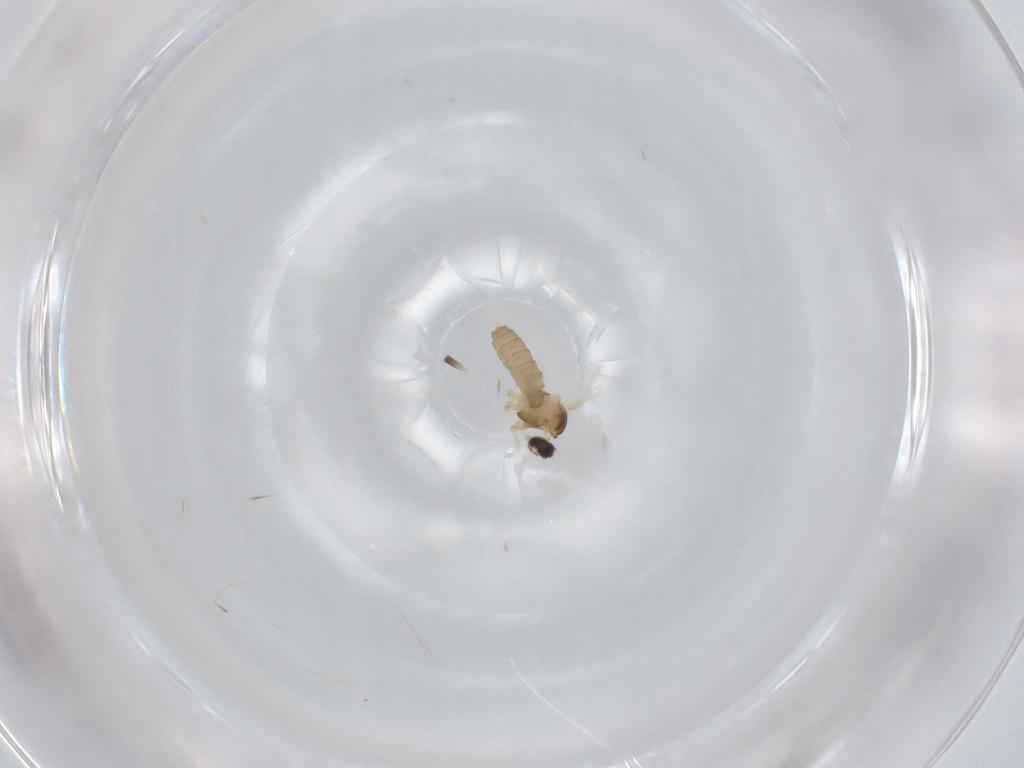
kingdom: Animalia
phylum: Arthropoda
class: Insecta
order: Diptera
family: Cecidomyiidae
